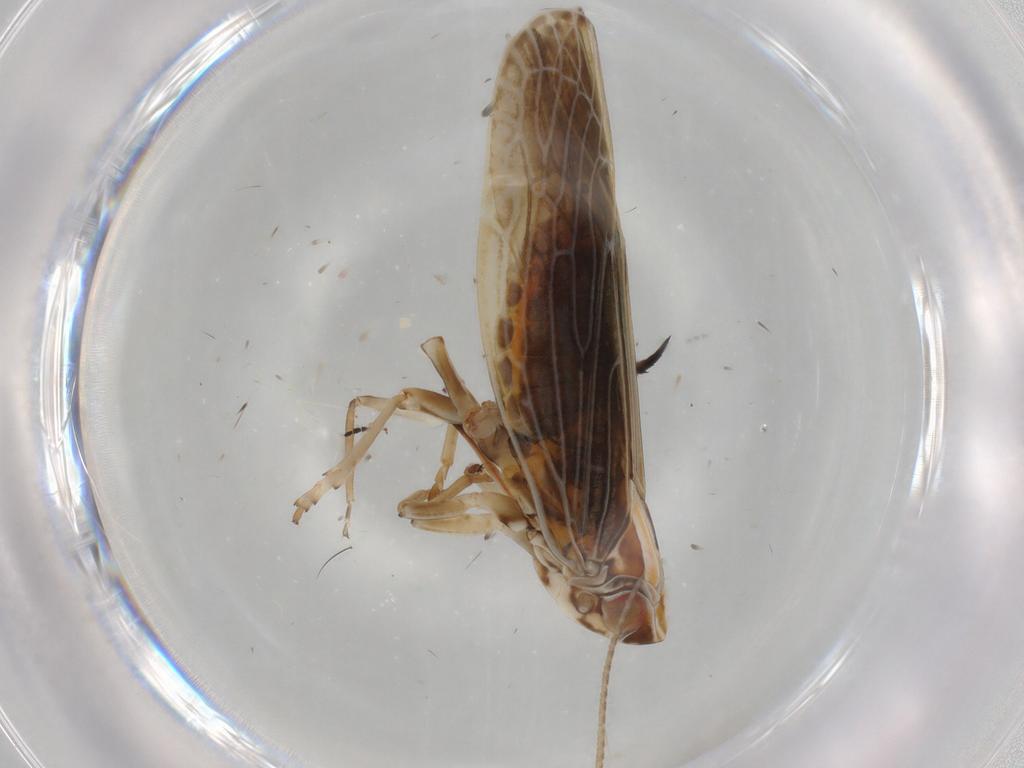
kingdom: Animalia
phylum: Arthropoda
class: Insecta
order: Hemiptera
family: Achilidae
